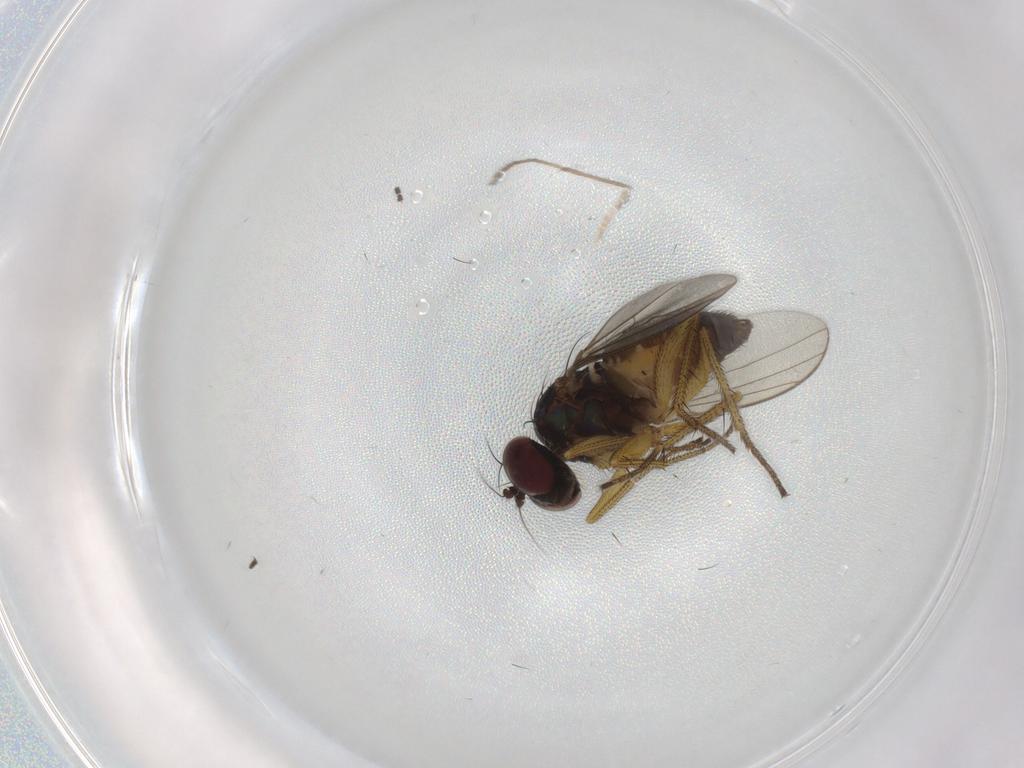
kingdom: Animalia
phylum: Arthropoda
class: Insecta
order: Diptera
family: Dolichopodidae
